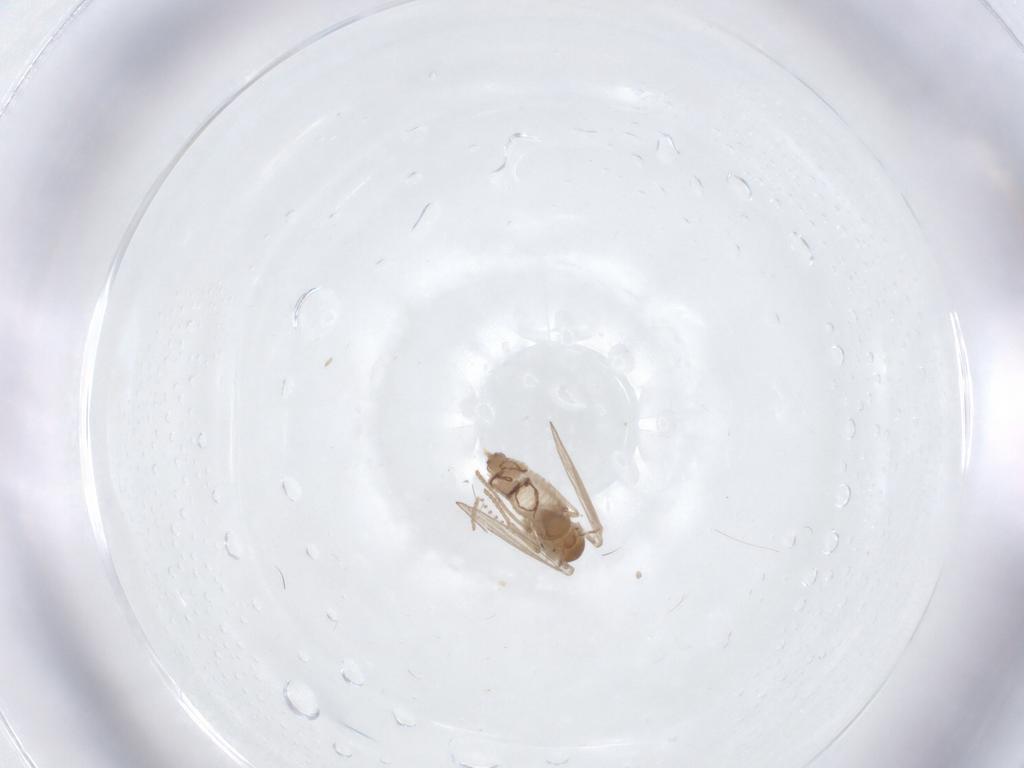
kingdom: Animalia
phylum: Arthropoda
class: Insecta
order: Diptera
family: Psychodidae
